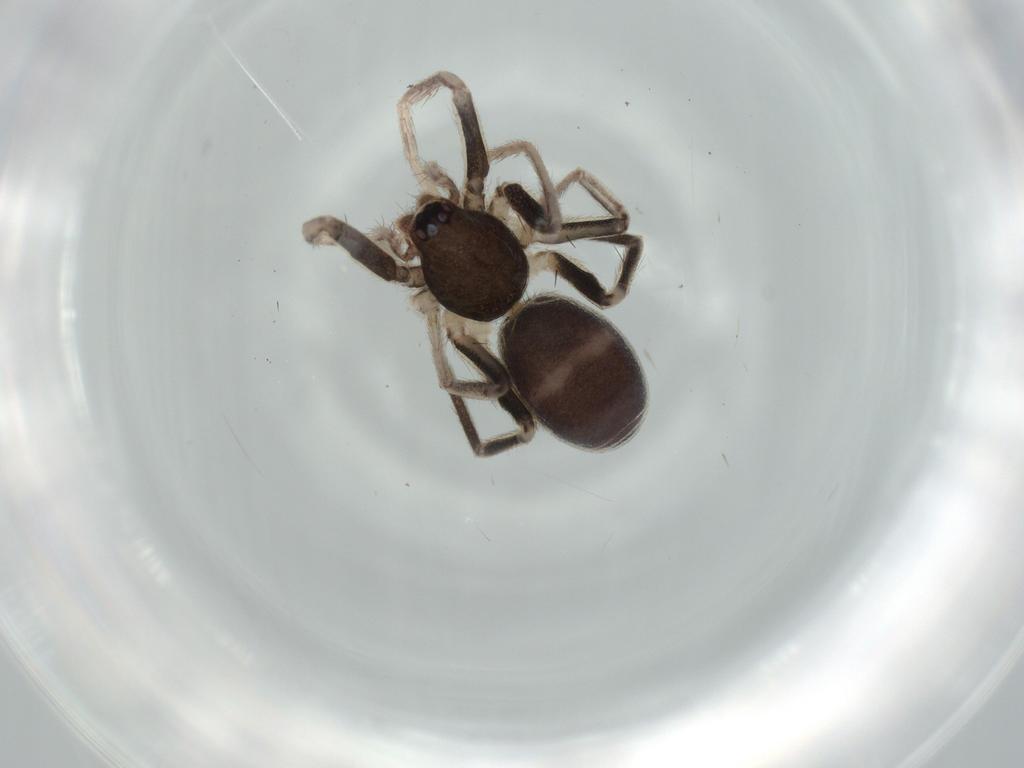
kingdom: Animalia
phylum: Arthropoda
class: Arachnida
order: Araneae
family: Corinnidae
